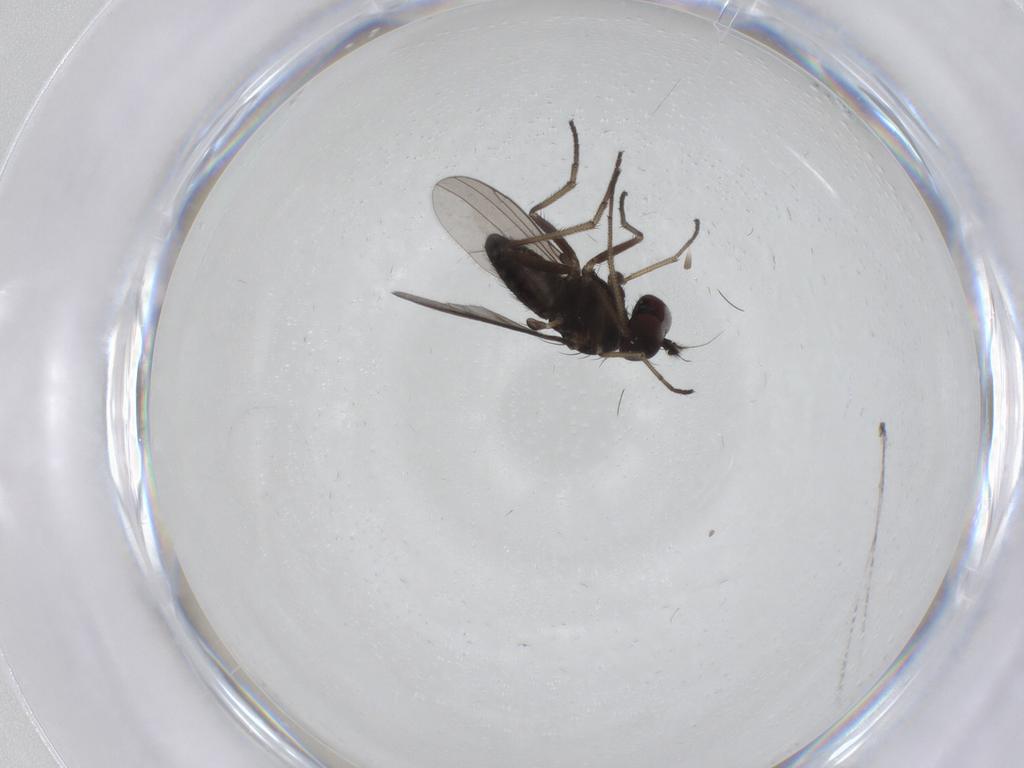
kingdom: Animalia
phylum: Arthropoda
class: Insecta
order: Diptera
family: Dolichopodidae
